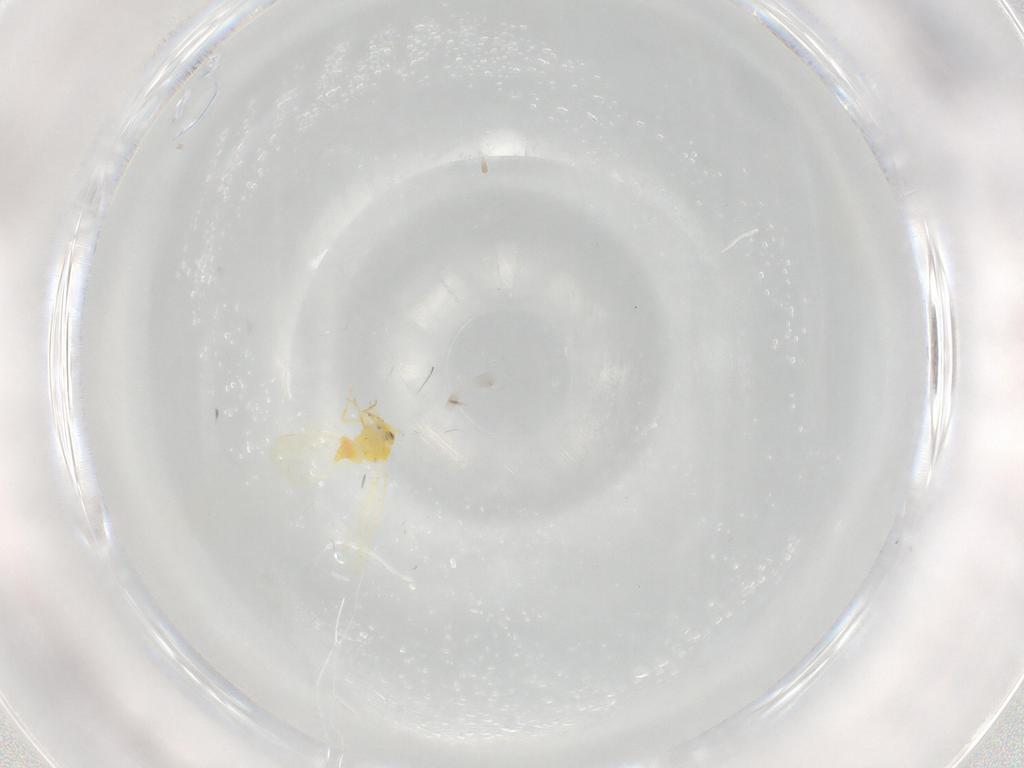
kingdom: Animalia
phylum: Arthropoda
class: Insecta
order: Hemiptera
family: Aleyrodidae
